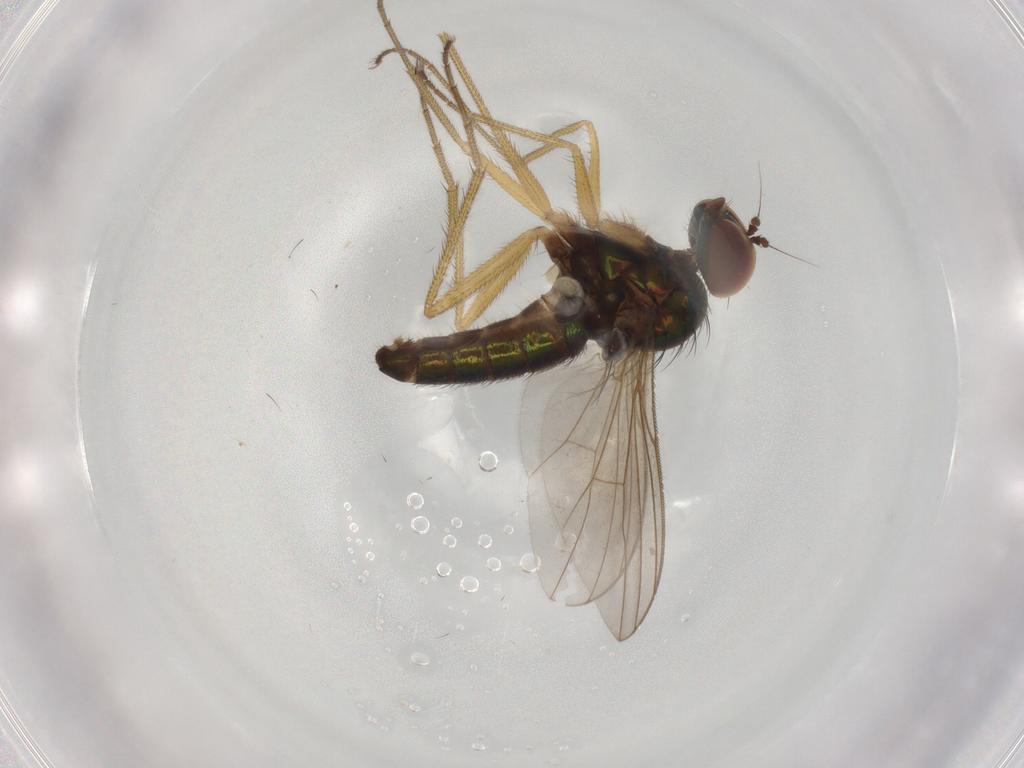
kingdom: Animalia
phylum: Arthropoda
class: Insecta
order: Diptera
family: Dolichopodidae
